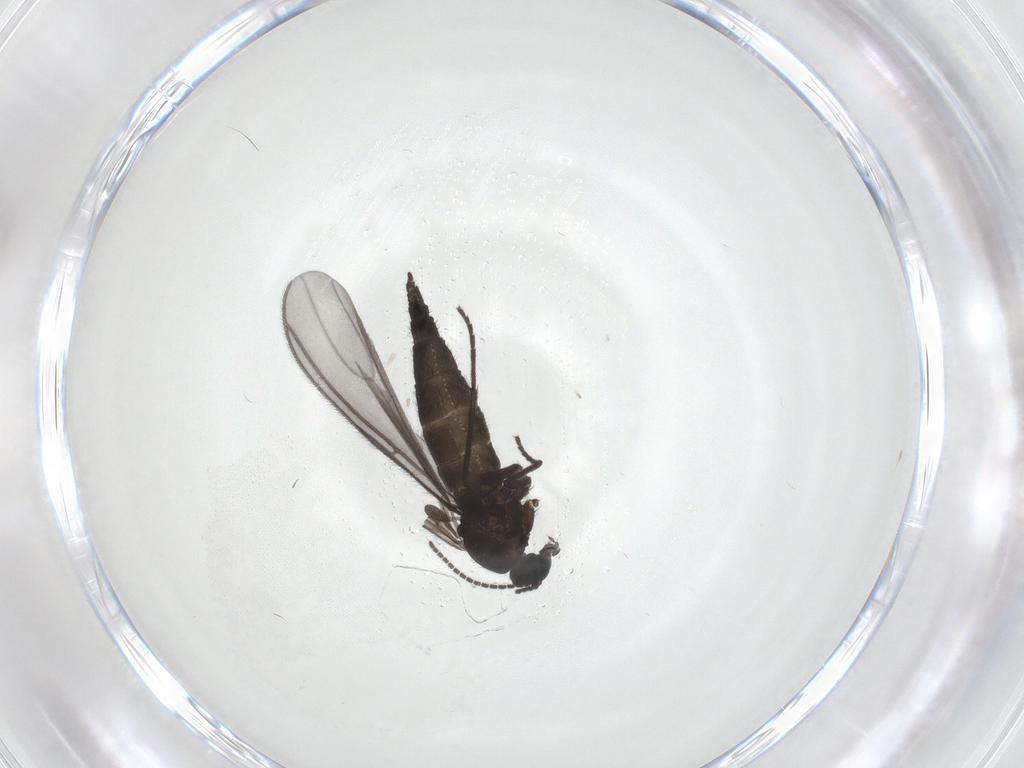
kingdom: Animalia
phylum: Arthropoda
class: Insecta
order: Diptera
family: Sciaridae
